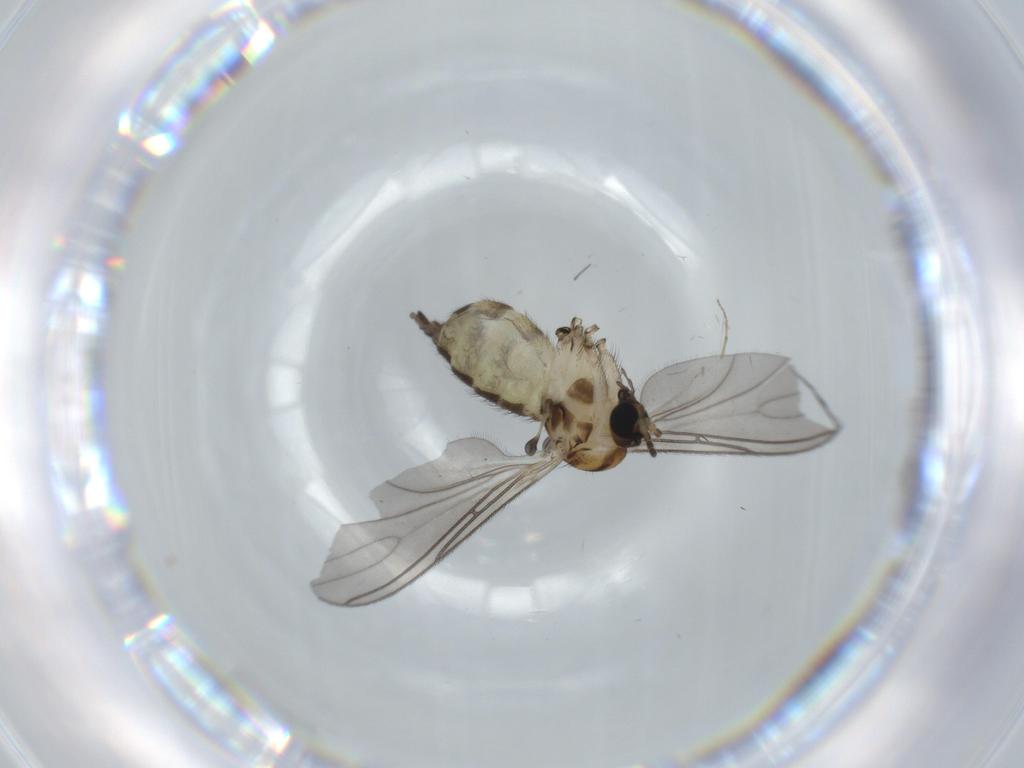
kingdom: Animalia
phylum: Arthropoda
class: Insecta
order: Diptera
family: Sciaridae
